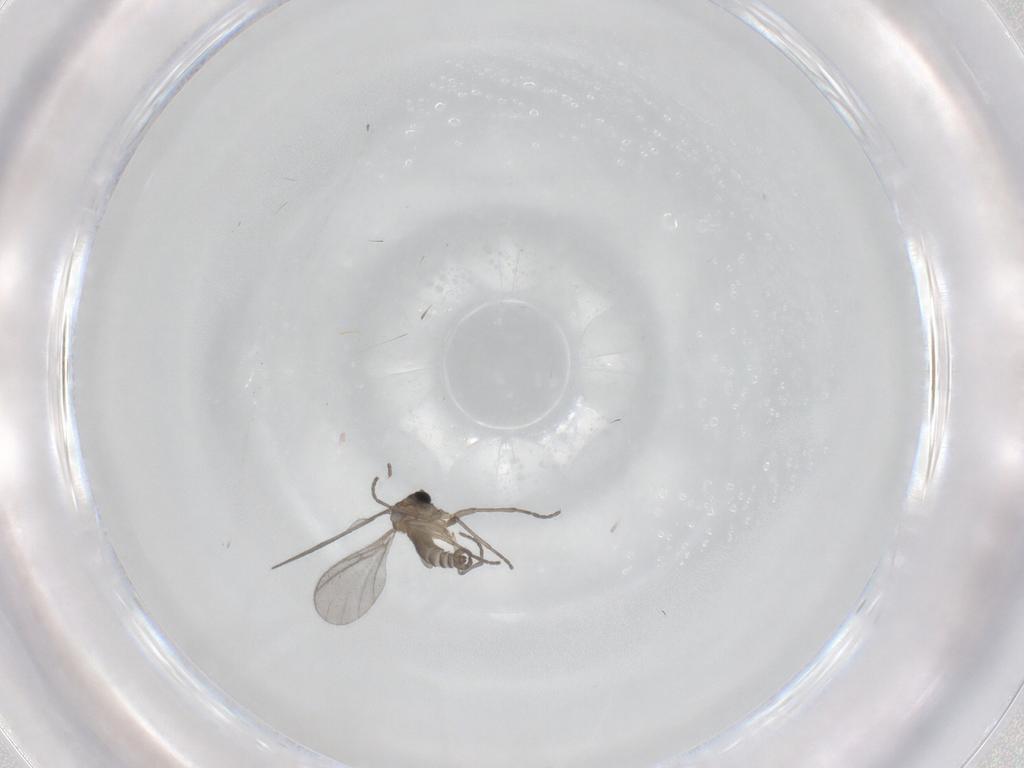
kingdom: Animalia
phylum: Arthropoda
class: Insecta
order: Diptera
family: Sciaridae
